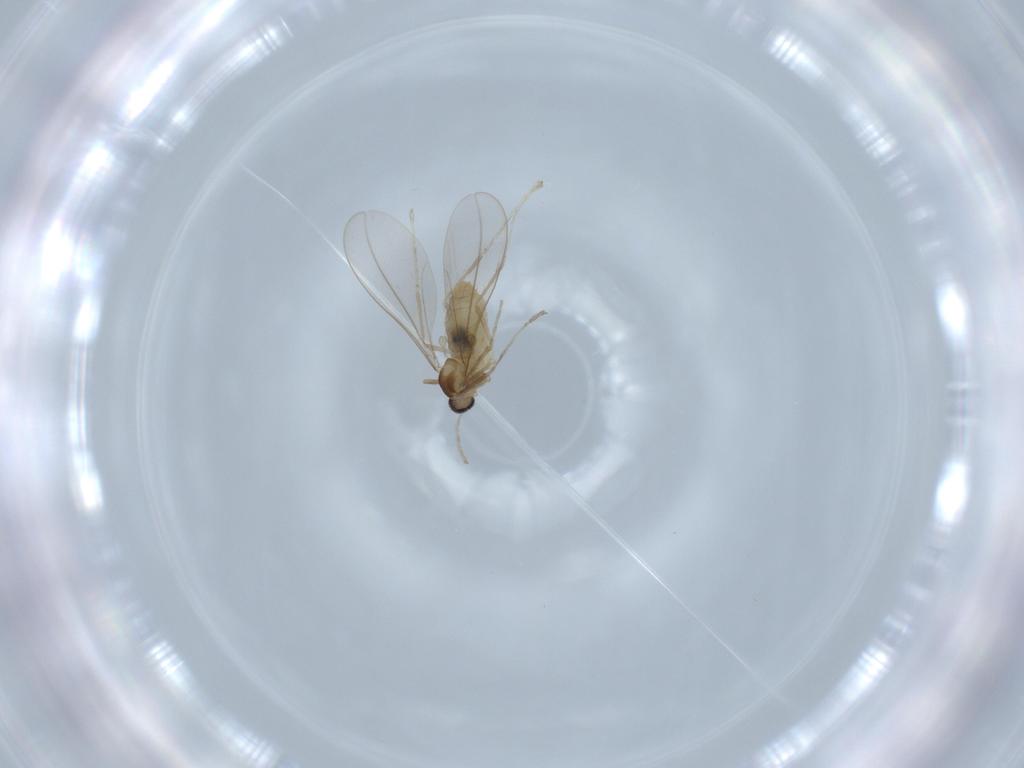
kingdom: Animalia
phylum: Arthropoda
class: Insecta
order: Diptera
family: Cecidomyiidae
